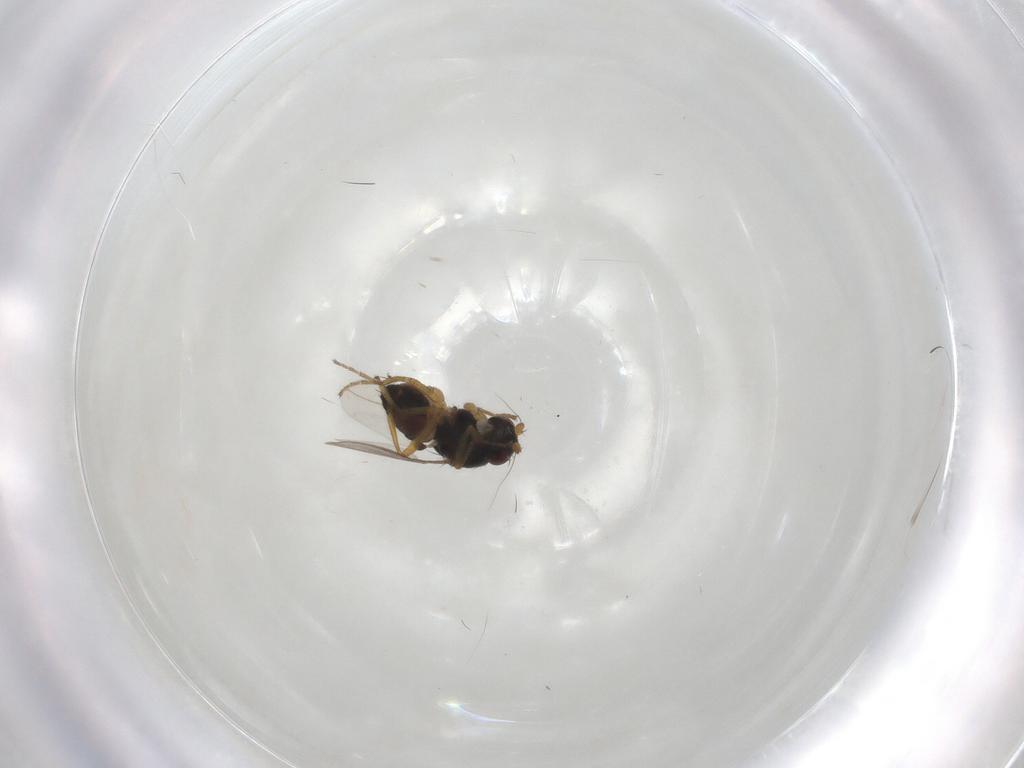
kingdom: Animalia
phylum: Arthropoda
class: Insecta
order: Diptera
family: Sphaeroceridae
